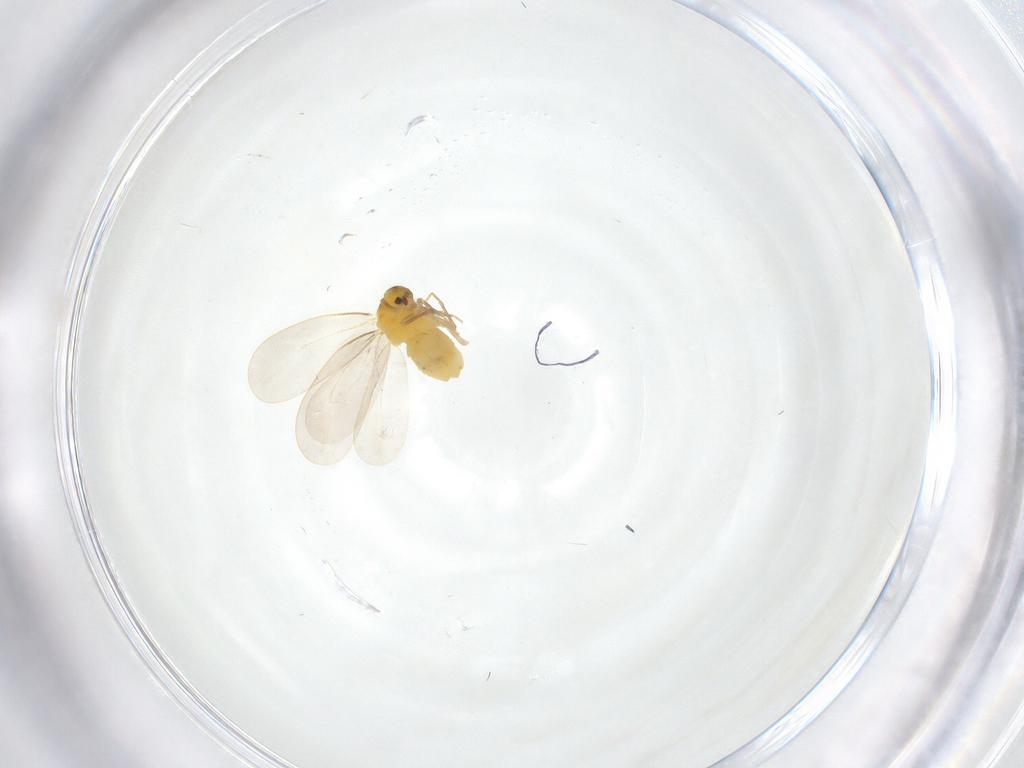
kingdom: Animalia
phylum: Arthropoda
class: Insecta
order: Hemiptera
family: Aleyrodidae
